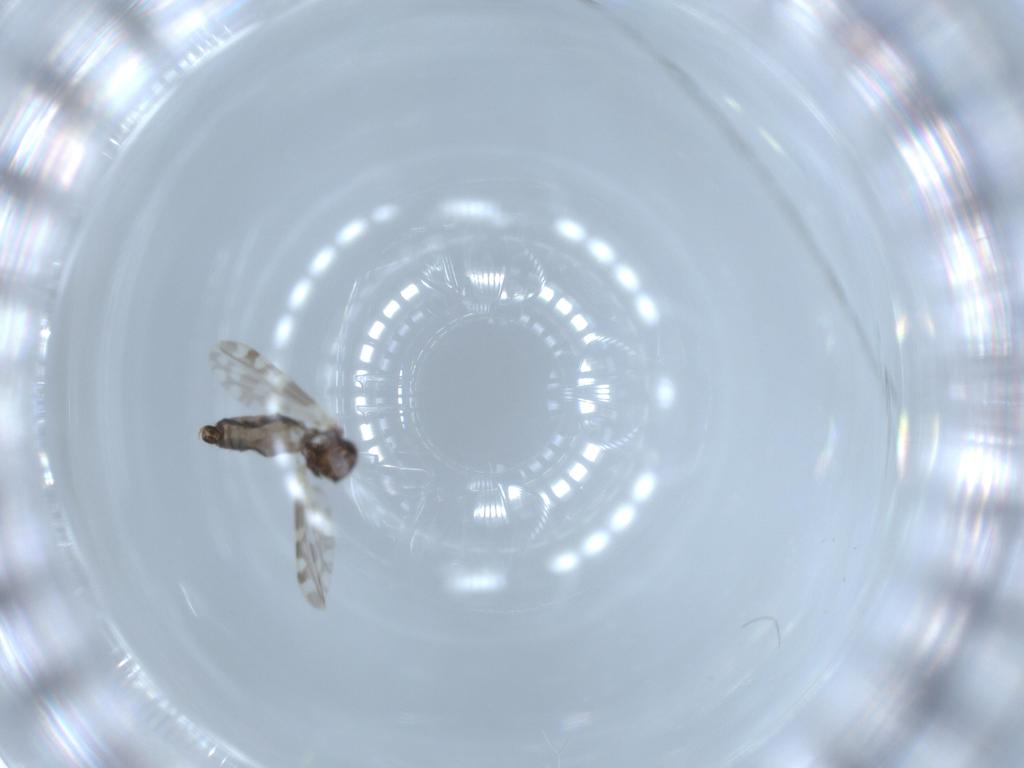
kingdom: Animalia
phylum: Arthropoda
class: Insecta
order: Diptera
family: Ceratopogonidae
